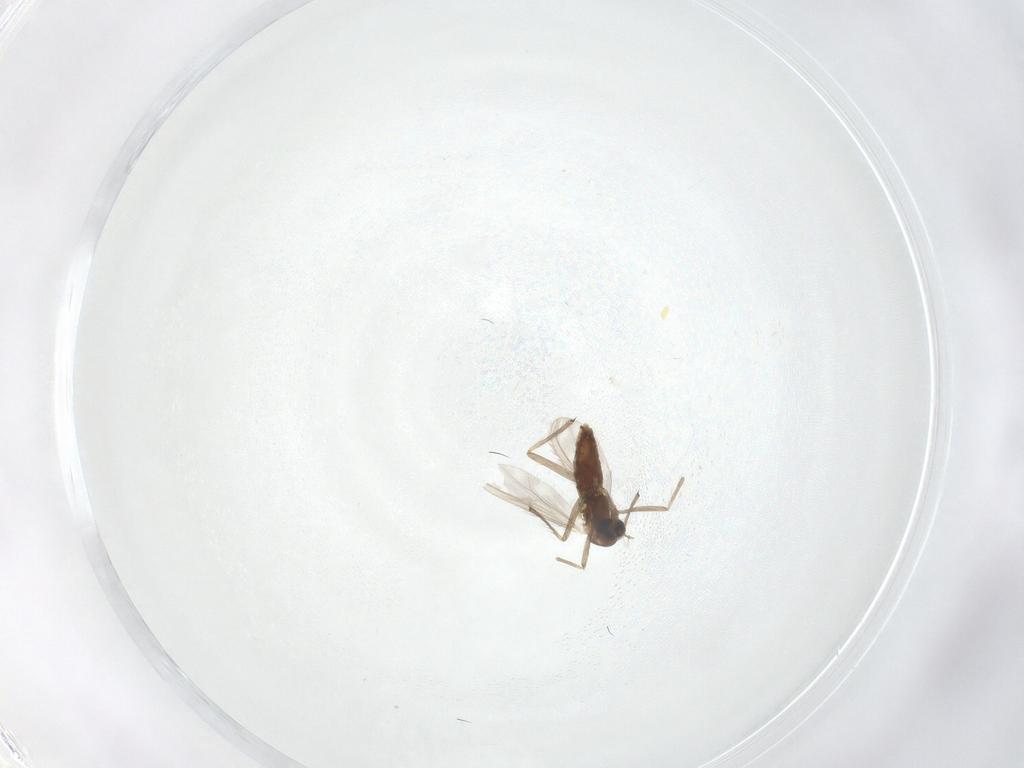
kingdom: Animalia
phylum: Arthropoda
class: Insecta
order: Diptera
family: Chironomidae
